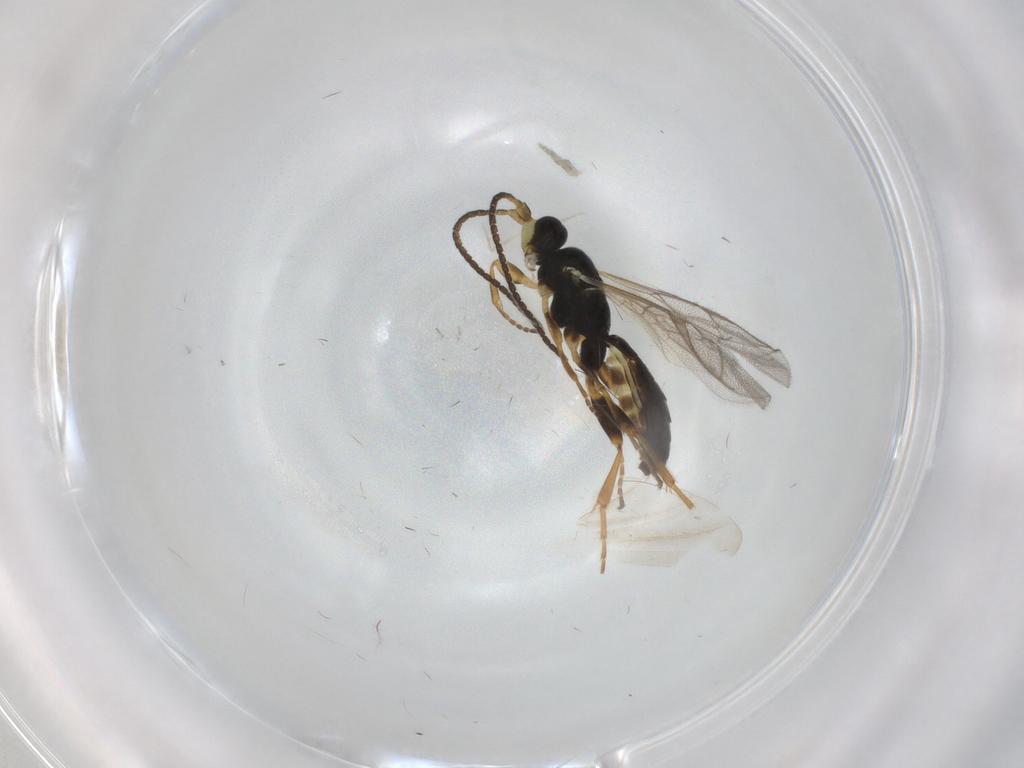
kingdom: Animalia
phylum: Arthropoda
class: Insecta
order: Hymenoptera
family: Ichneumonidae
